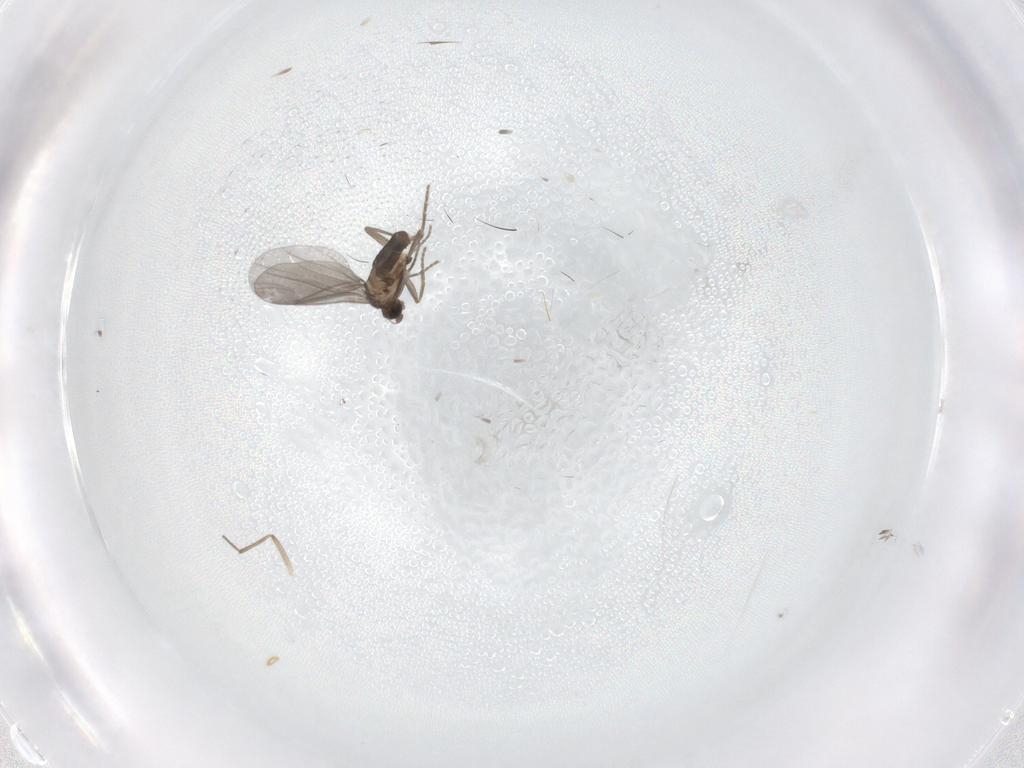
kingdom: Animalia
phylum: Arthropoda
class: Insecta
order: Diptera
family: Phoridae
